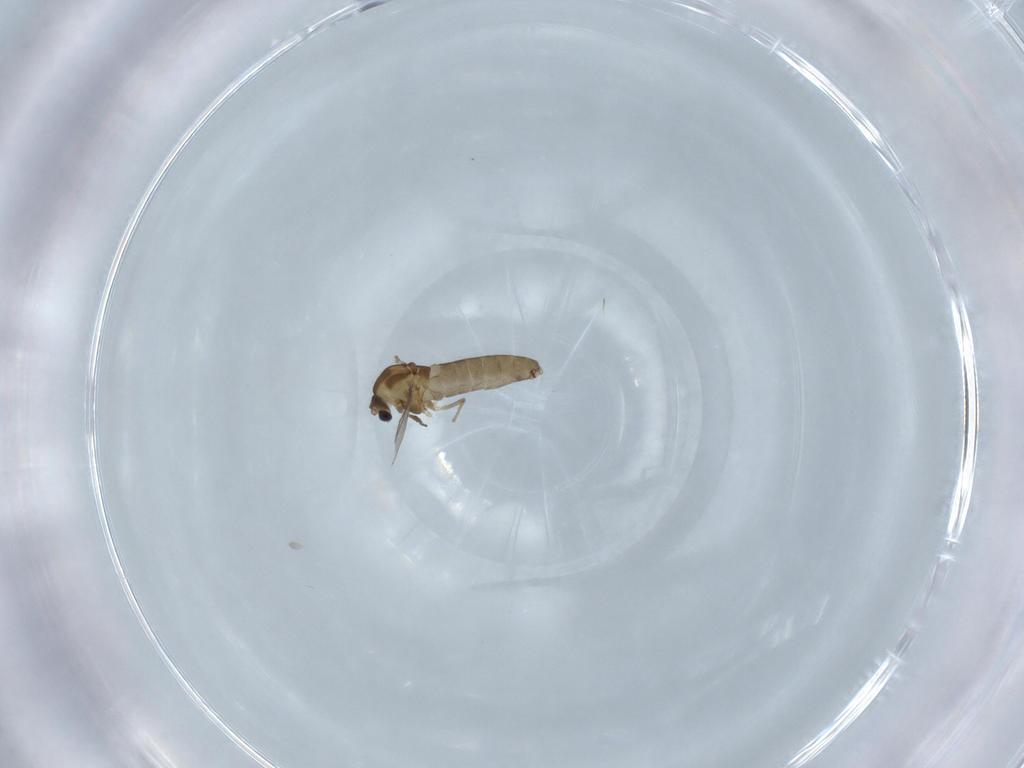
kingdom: Animalia
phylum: Arthropoda
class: Insecta
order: Diptera
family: Chironomidae
